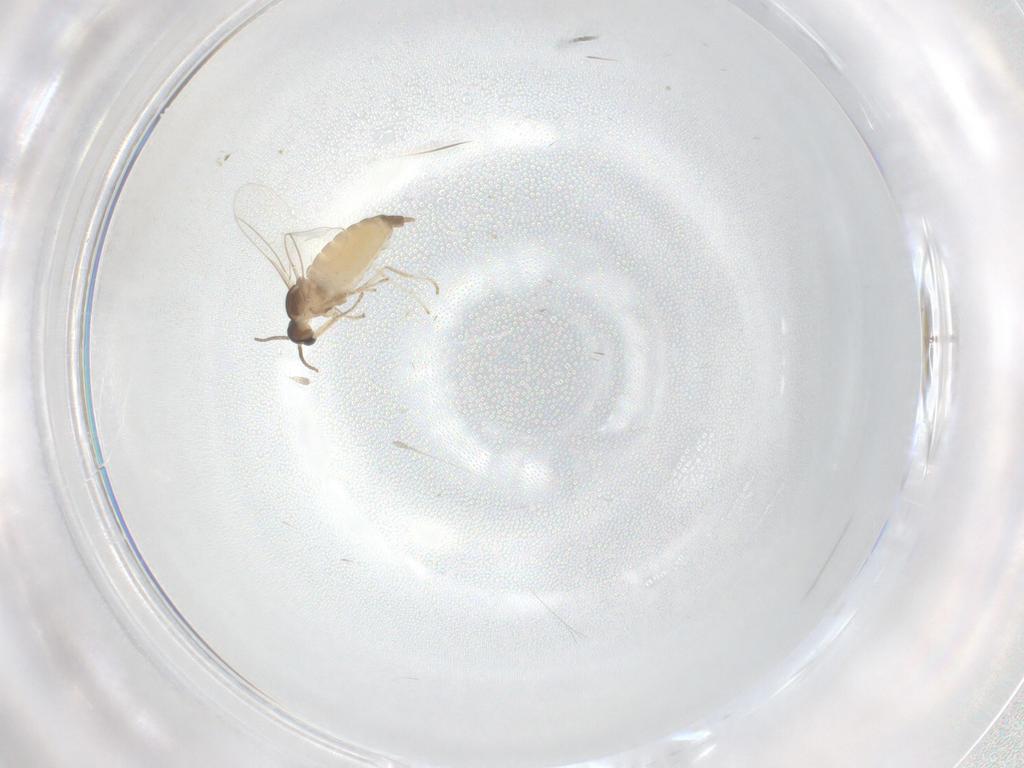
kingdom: Animalia
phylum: Arthropoda
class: Insecta
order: Diptera
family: Cecidomyiidae
